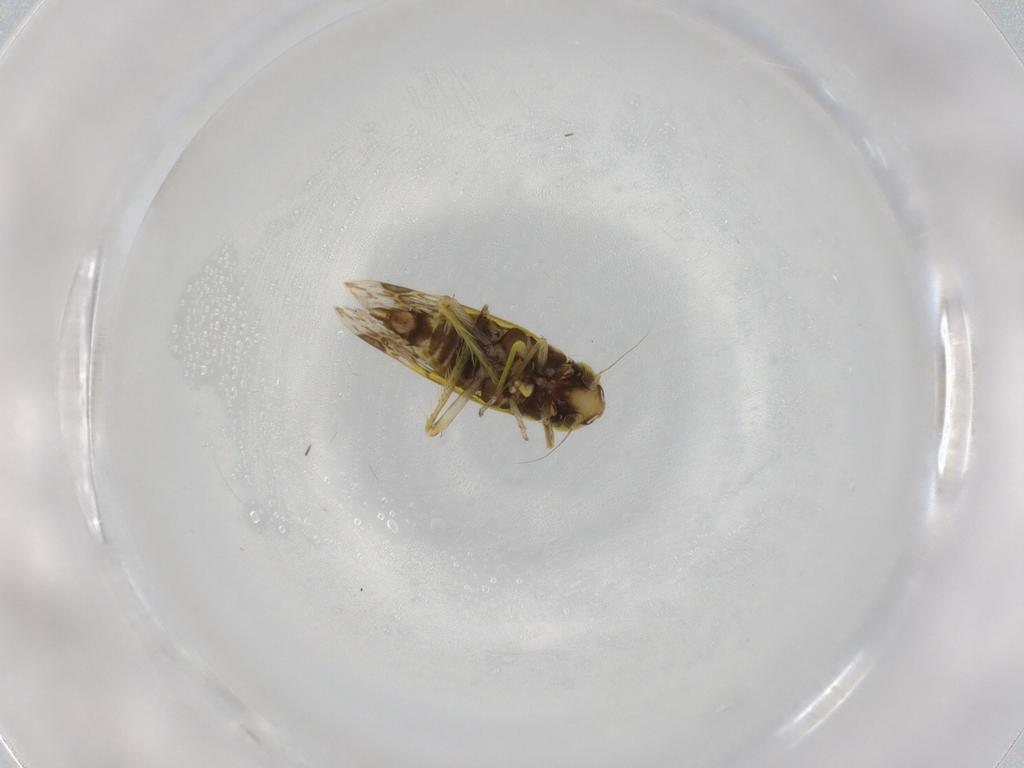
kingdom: Animalia
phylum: Arthropoda
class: Insecta
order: Hemiptera
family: Cicadellidae
